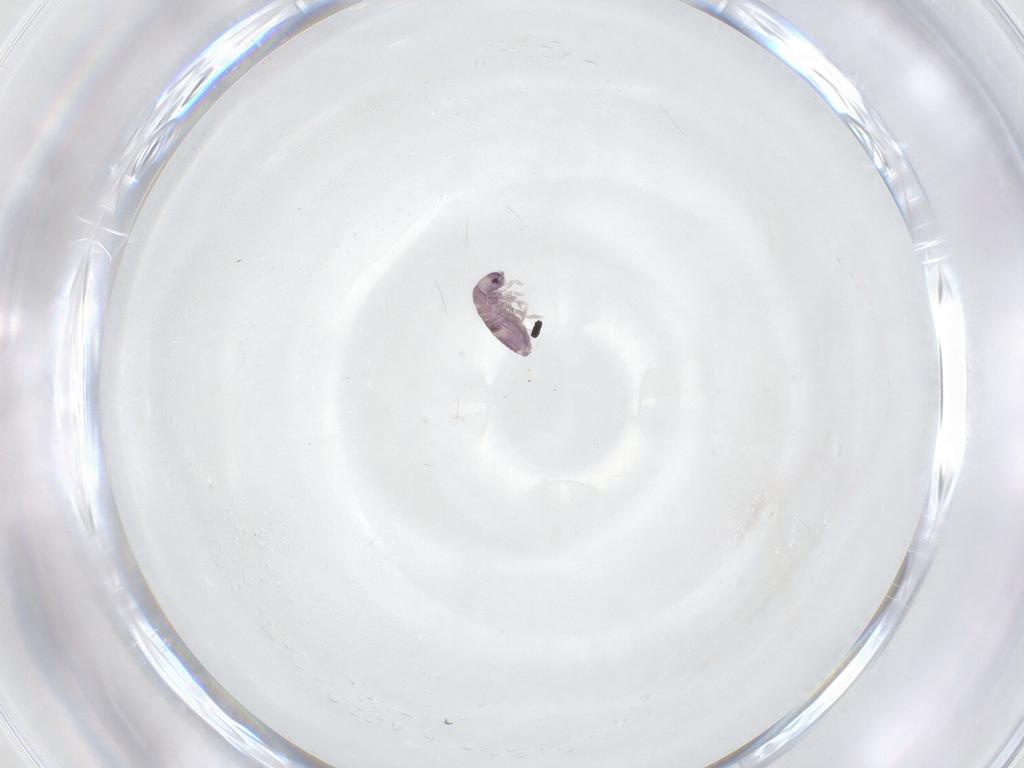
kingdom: Animalia
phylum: Arthropoda
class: Collembola
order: Entomobryomorpha
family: Entomobryidae
